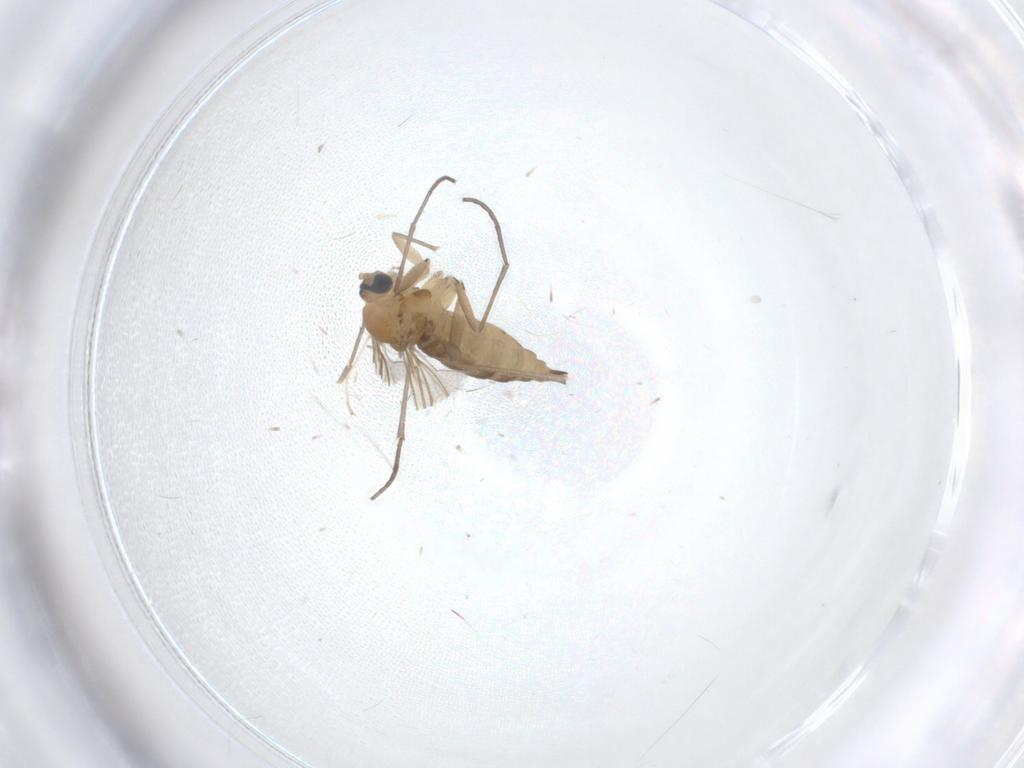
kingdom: Animalia
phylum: Arthropoda
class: Insecta
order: Diptera
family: Sciaridae
